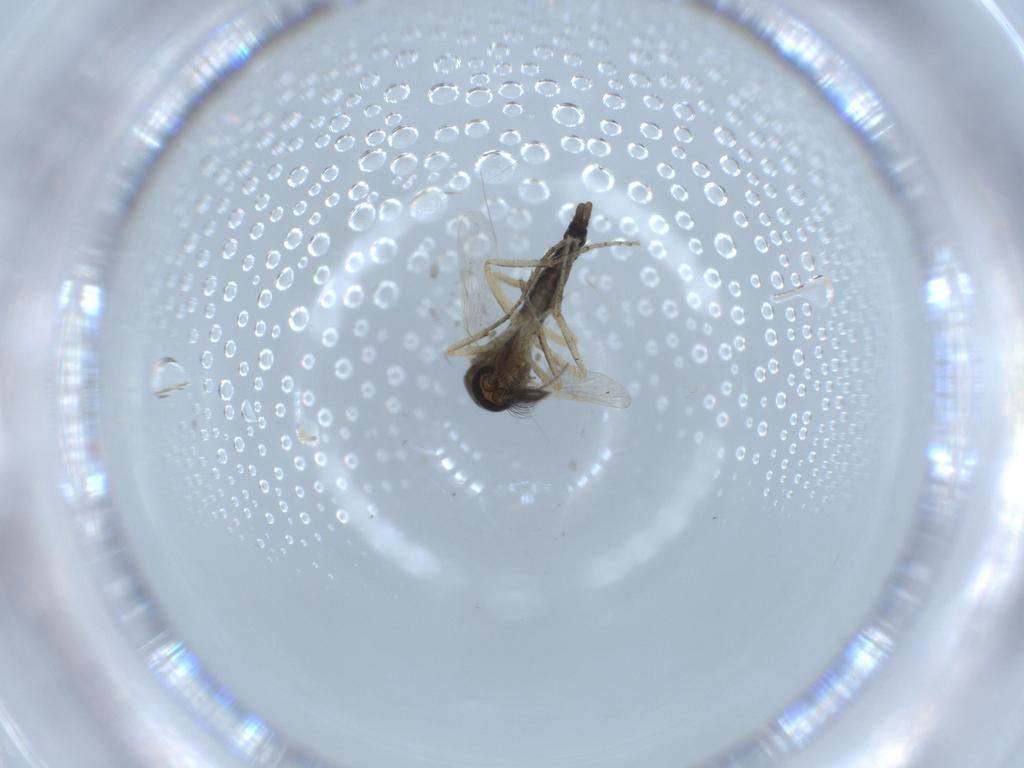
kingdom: Animalia
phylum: Arthropoda
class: Insecta
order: Diptera
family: Ceratopogonidae
